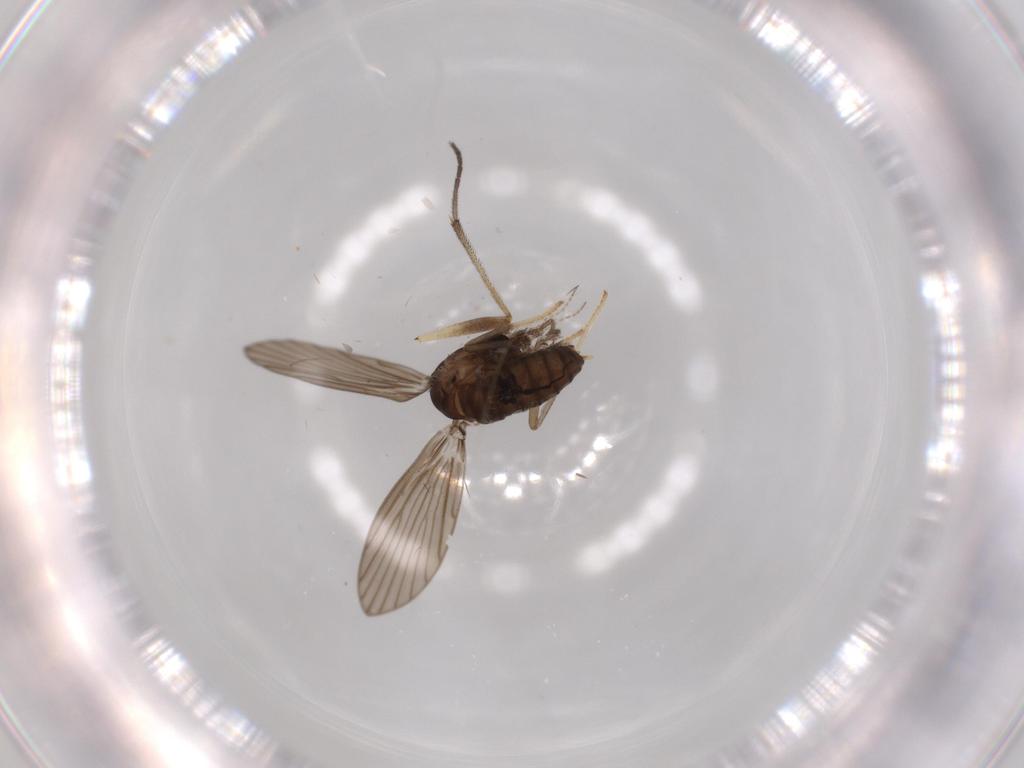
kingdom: Animalia
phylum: Arthropoda
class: Insecta
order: Diptera
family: Psychodidae
